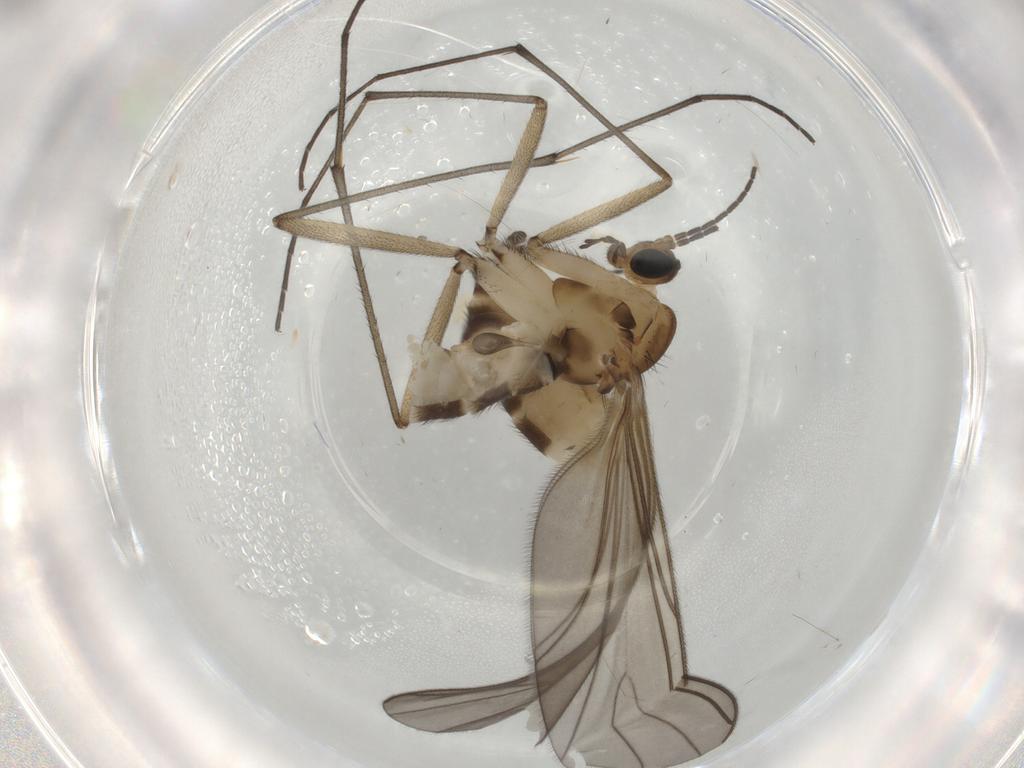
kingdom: Animalia
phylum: Arthropoda
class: Insecta
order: Diptera
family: Sciaridae
